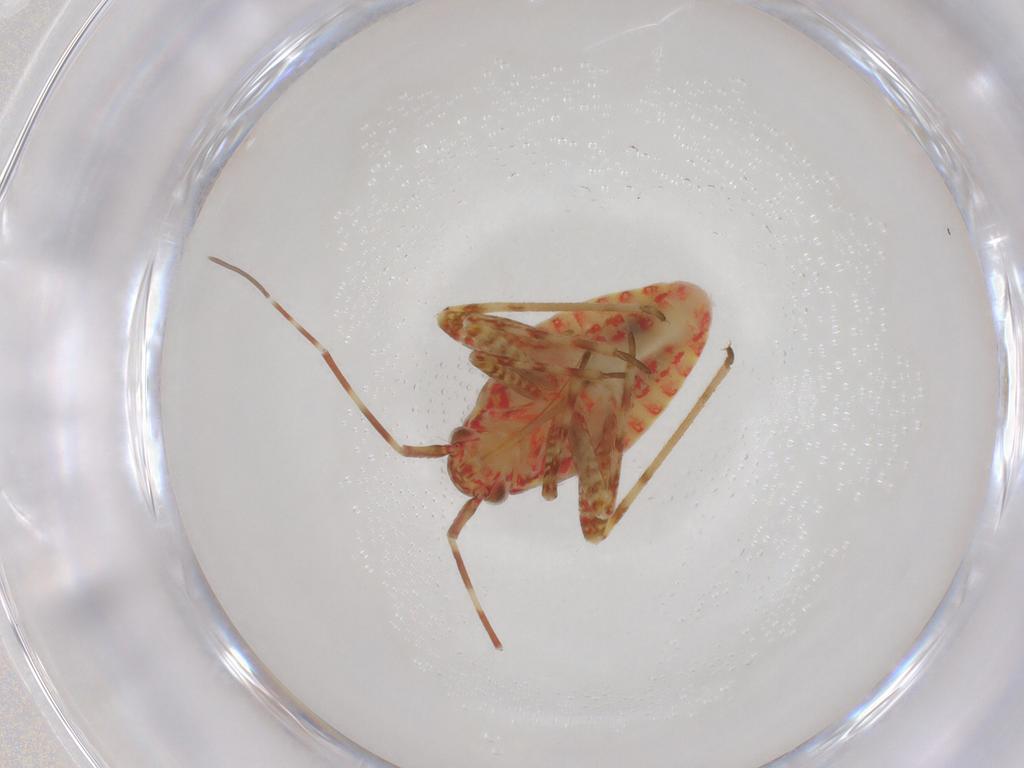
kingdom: Animalia
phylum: Arthropoda
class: Insecta
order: Hemiptera
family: Miridae
